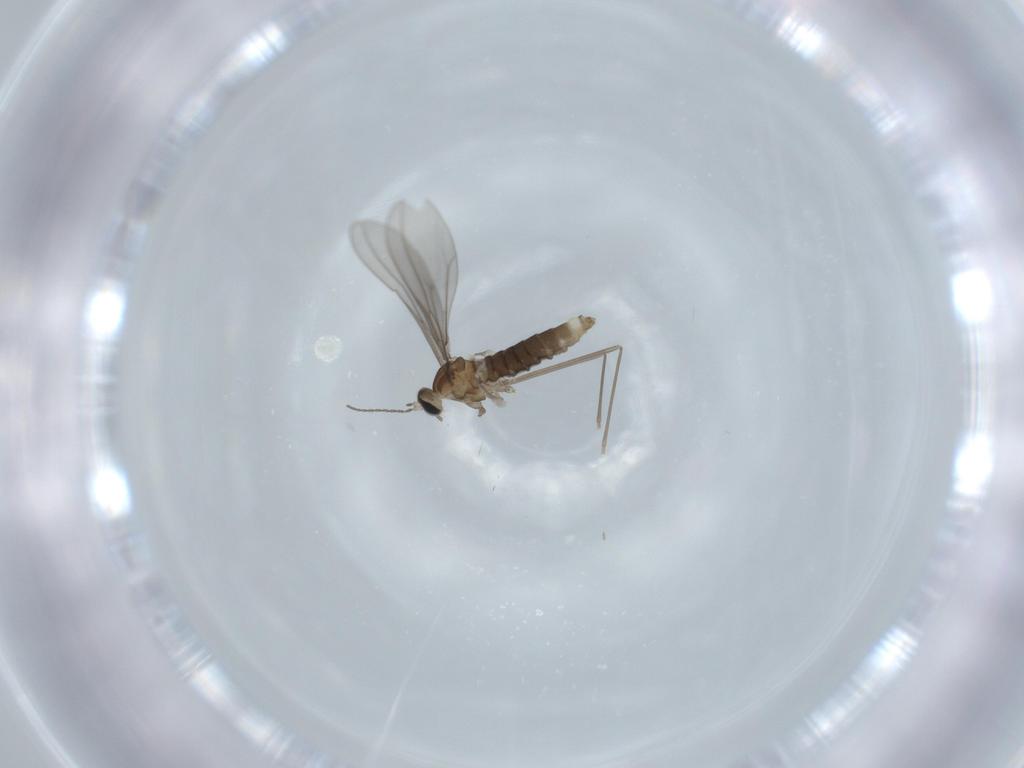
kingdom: Animalia
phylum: Arthropoda
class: Insecta
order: Diptera
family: Cecidomyiidae
